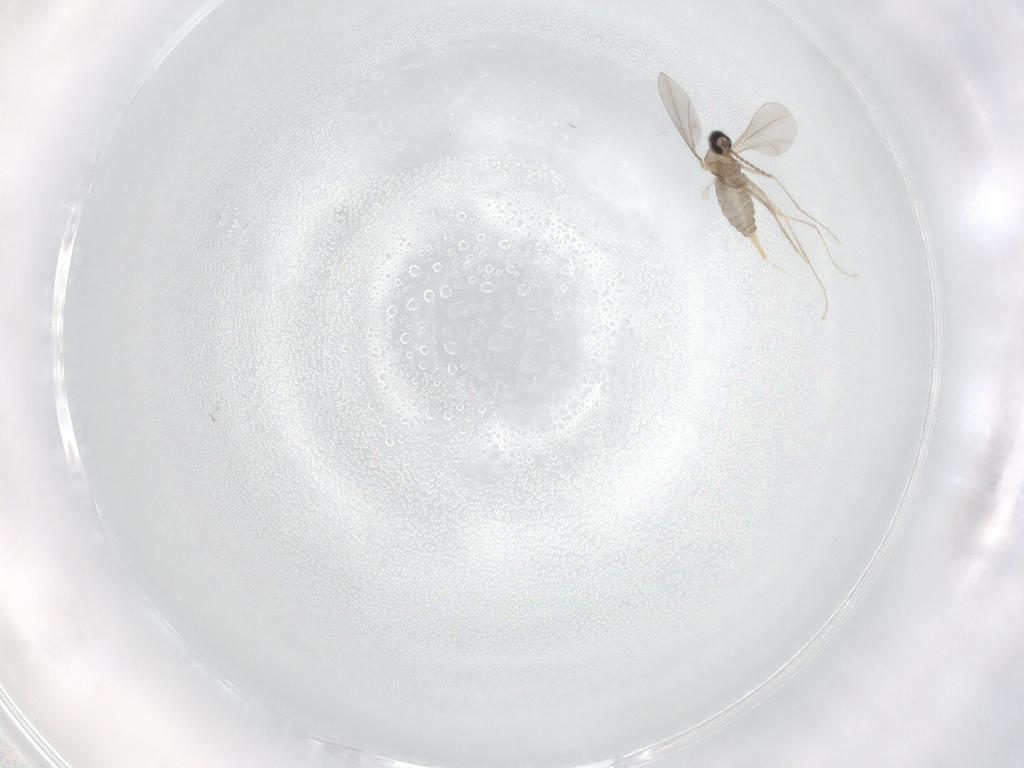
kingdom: Animalia
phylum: Arthropoda
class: Insecta
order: Diptera
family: Cecidomyiidae
